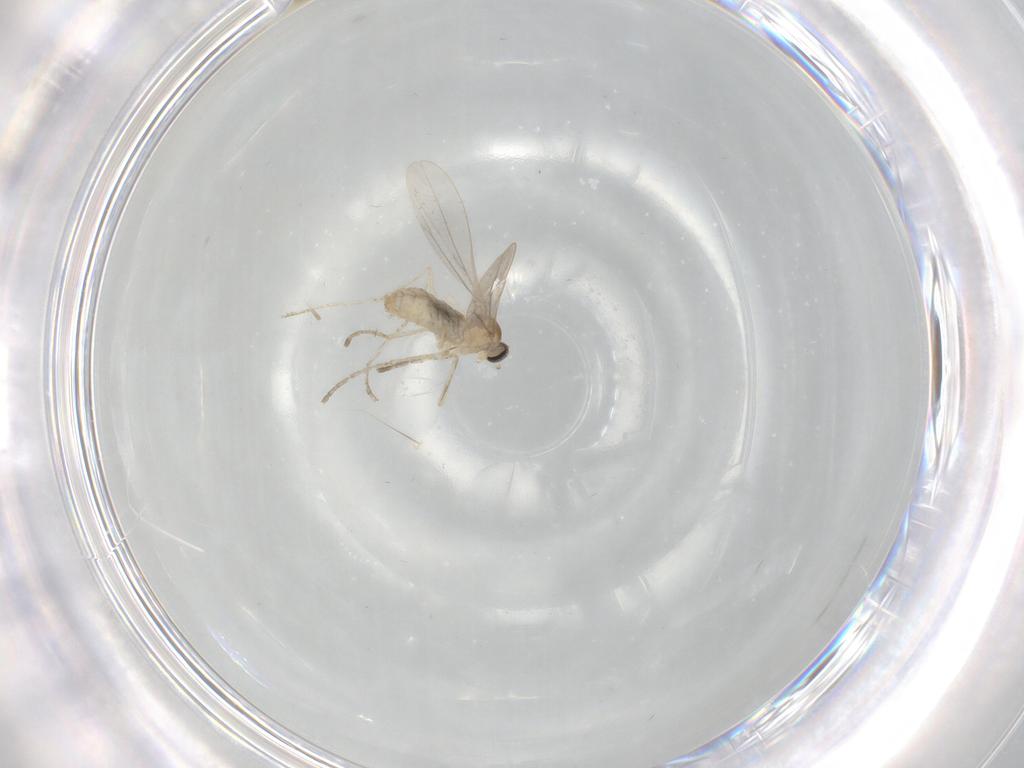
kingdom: Animalia
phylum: Arthropoda
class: Insecta
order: Diptera
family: Cecidomyiidae
